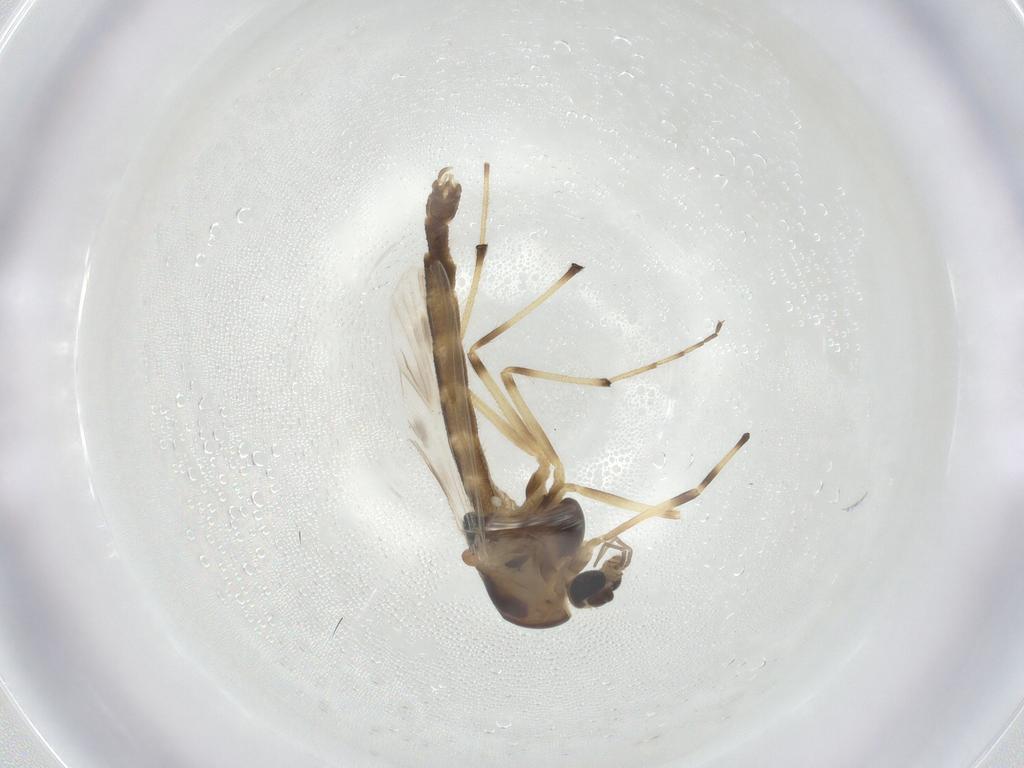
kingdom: Animalia
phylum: Arthropoda
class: Insecta
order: Diptera
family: Chironomidae
